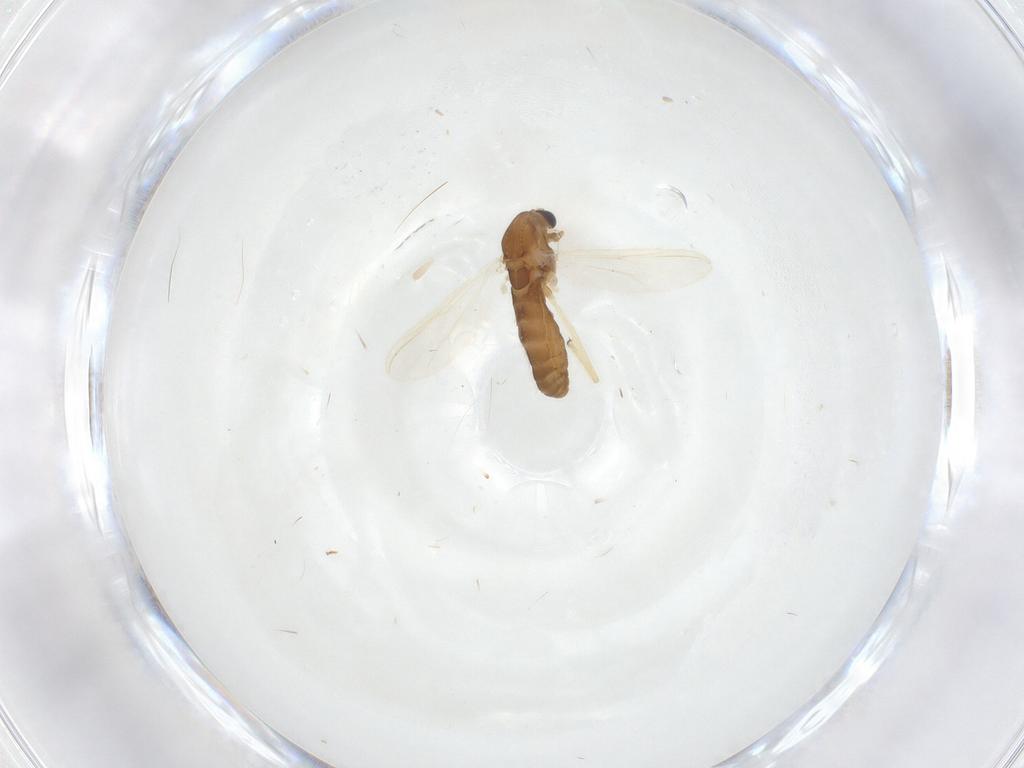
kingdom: Animalia
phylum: Arthropoda
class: Insecta
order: Diptera
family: Chironomidae
